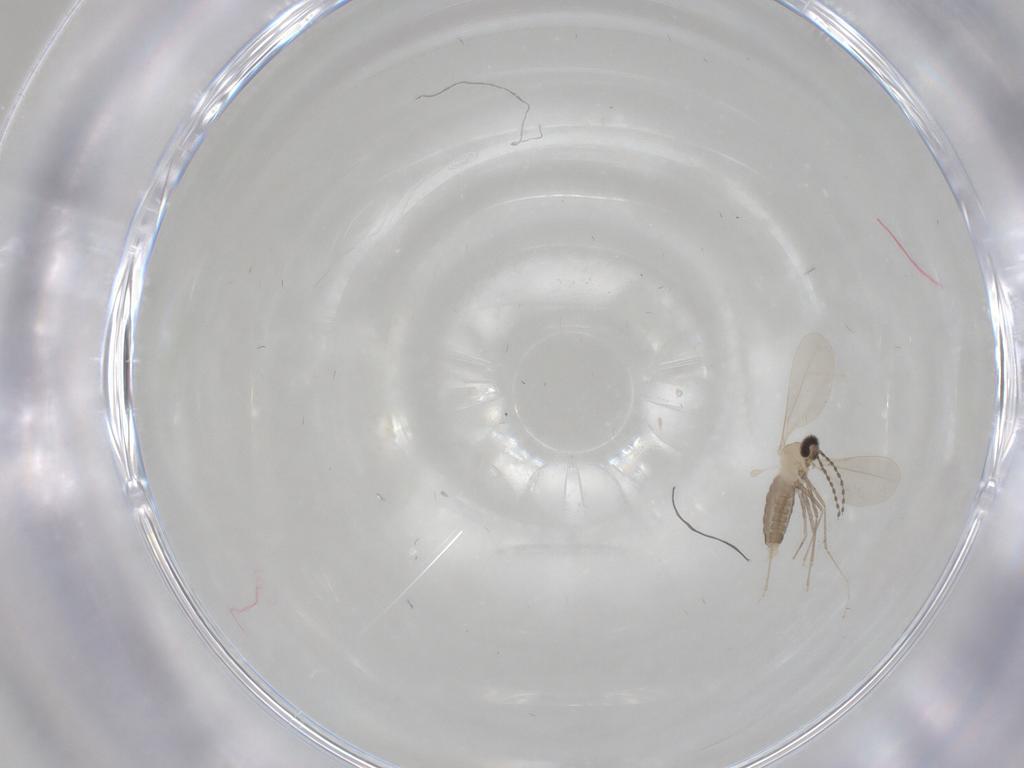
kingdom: Animalia
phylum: Arthropoda
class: Insecta
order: Diptera
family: Cecidomyiidae
